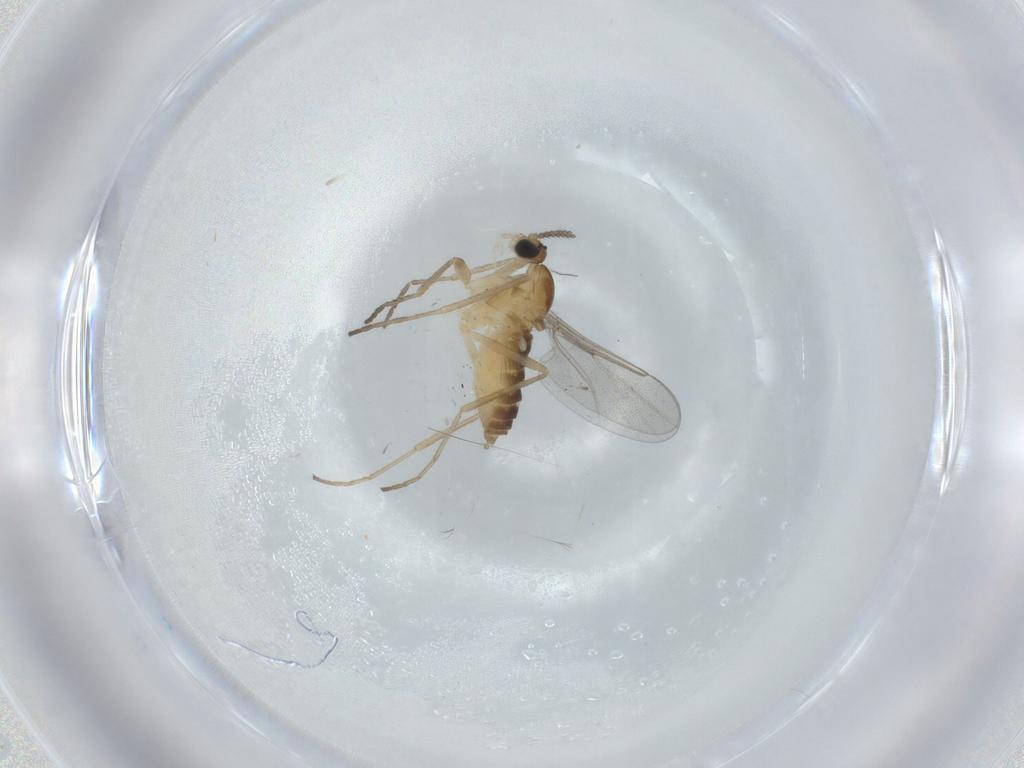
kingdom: Animalia
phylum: Arthropoda
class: Insecta
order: Diptera
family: Cecidomyiidae
